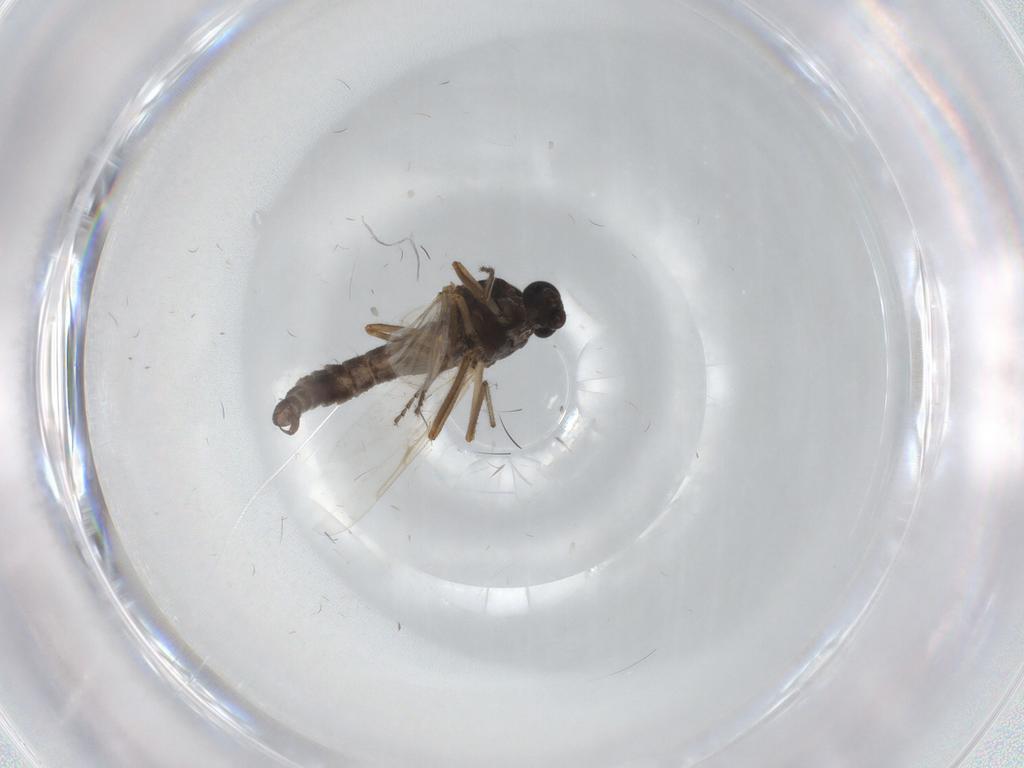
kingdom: Animalia
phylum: Arthropoda
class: Insecta
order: Diptera
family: Ceratopogonidae
